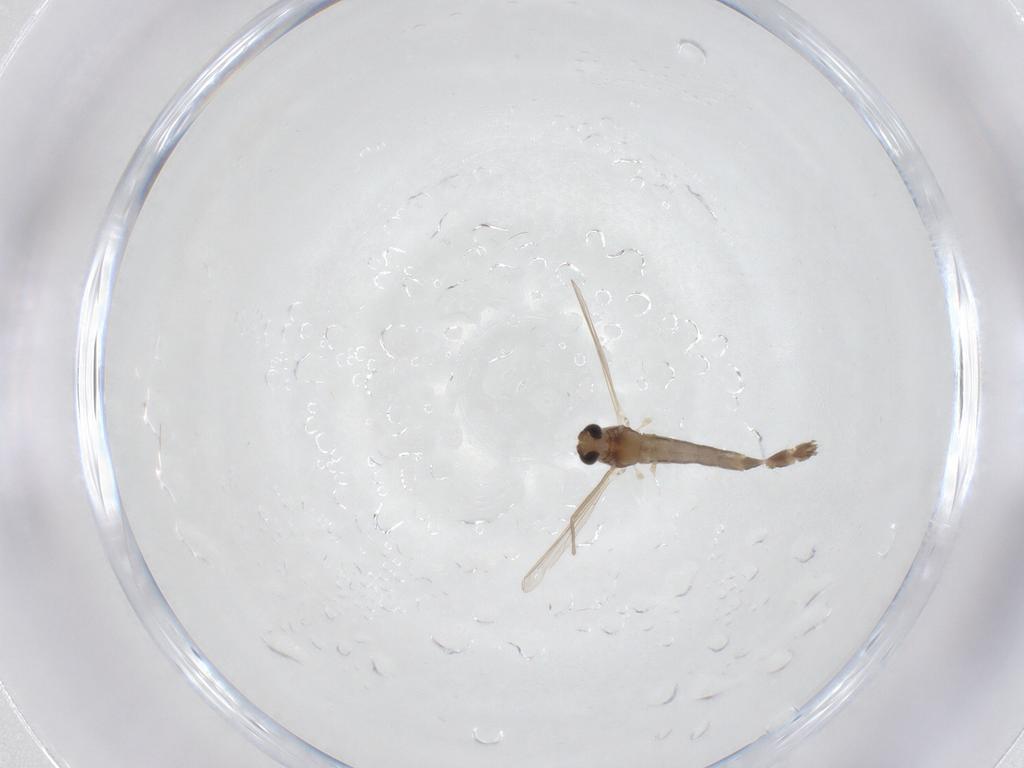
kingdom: Animalia
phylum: Arthropoda
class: Insecta
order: Diptera
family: Chironomidae
